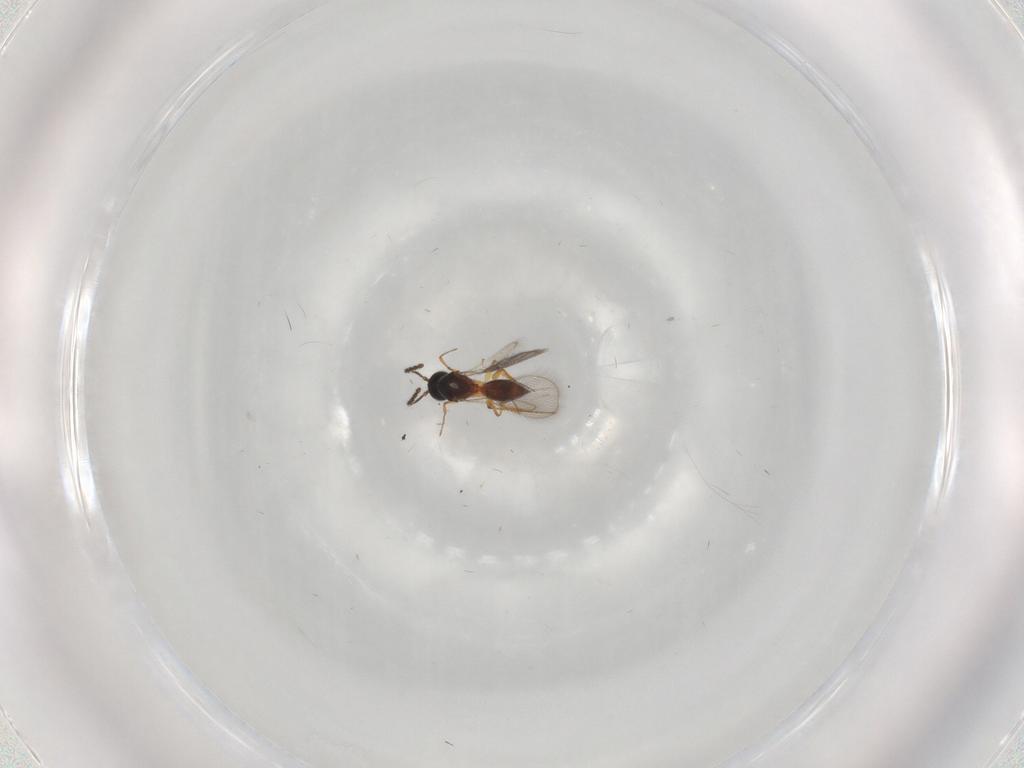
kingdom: Animalia
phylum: Arthropoda
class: Insecta
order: Hymenoptera
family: Figitidae
